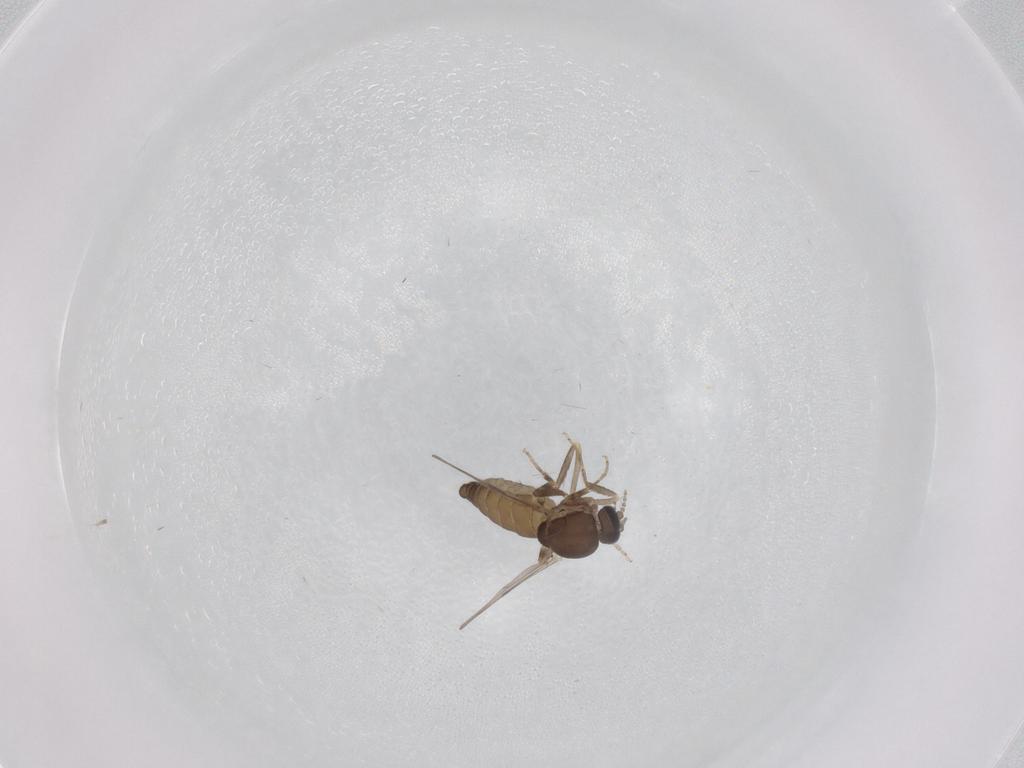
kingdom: Animalia
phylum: Arthropoda
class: Insecta
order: Diptera
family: Ceratopogonidae
